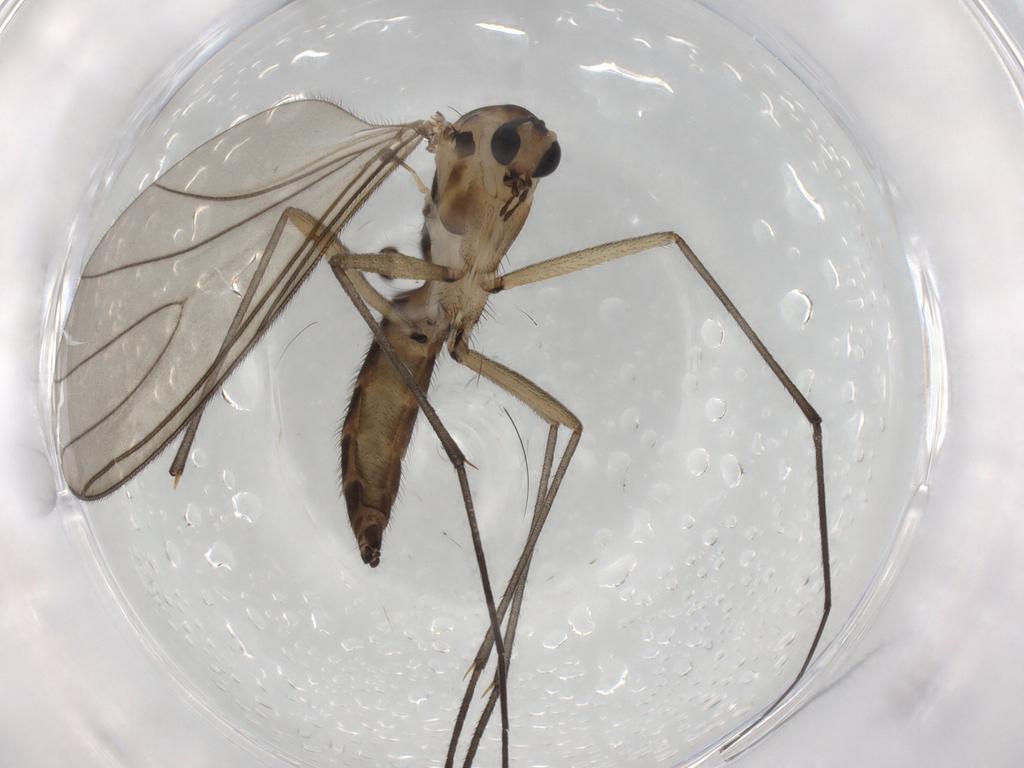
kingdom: Animalia
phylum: Arthropoda
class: Insecta
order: Diptera
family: Sciaridae
